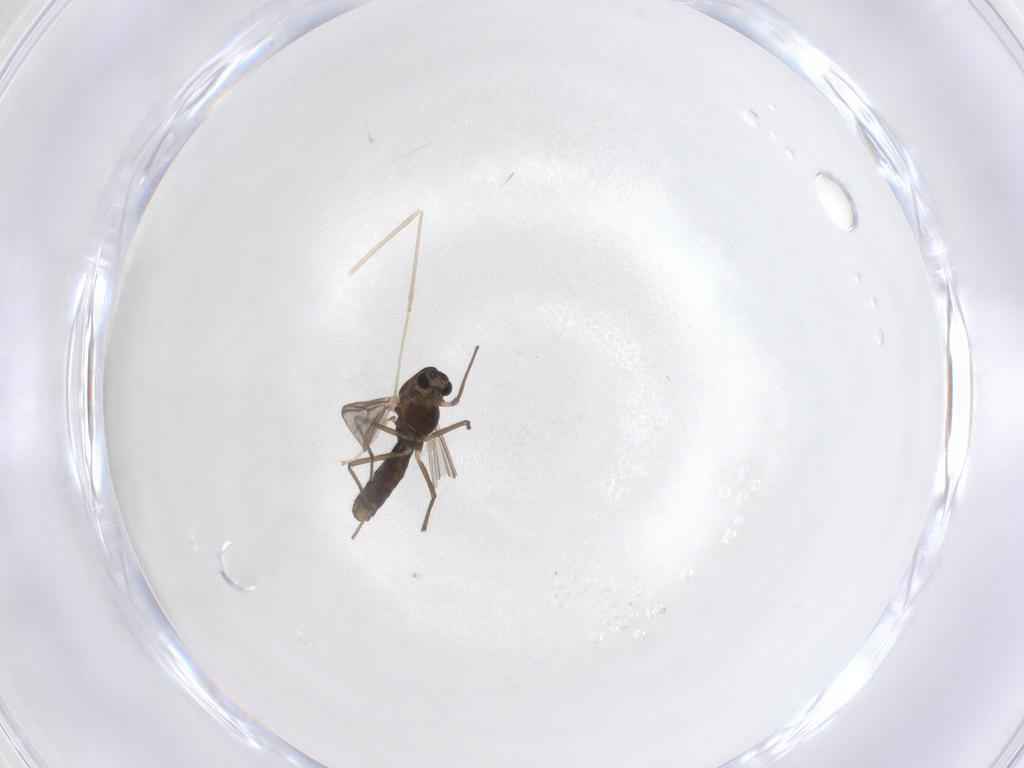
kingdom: Animalia
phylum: Arthropoda
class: Insecta
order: Diptera
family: Chironomidae
